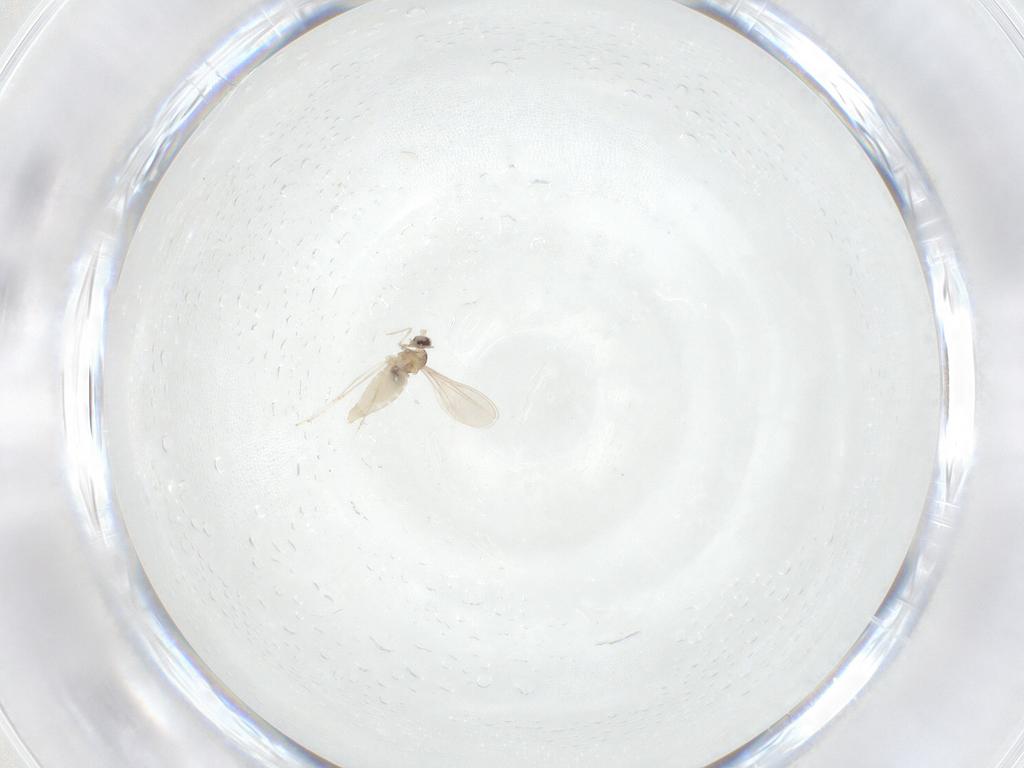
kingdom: Animalia
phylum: Arthropoda
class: Insecta
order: Diptera
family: Cecidomyiidae
